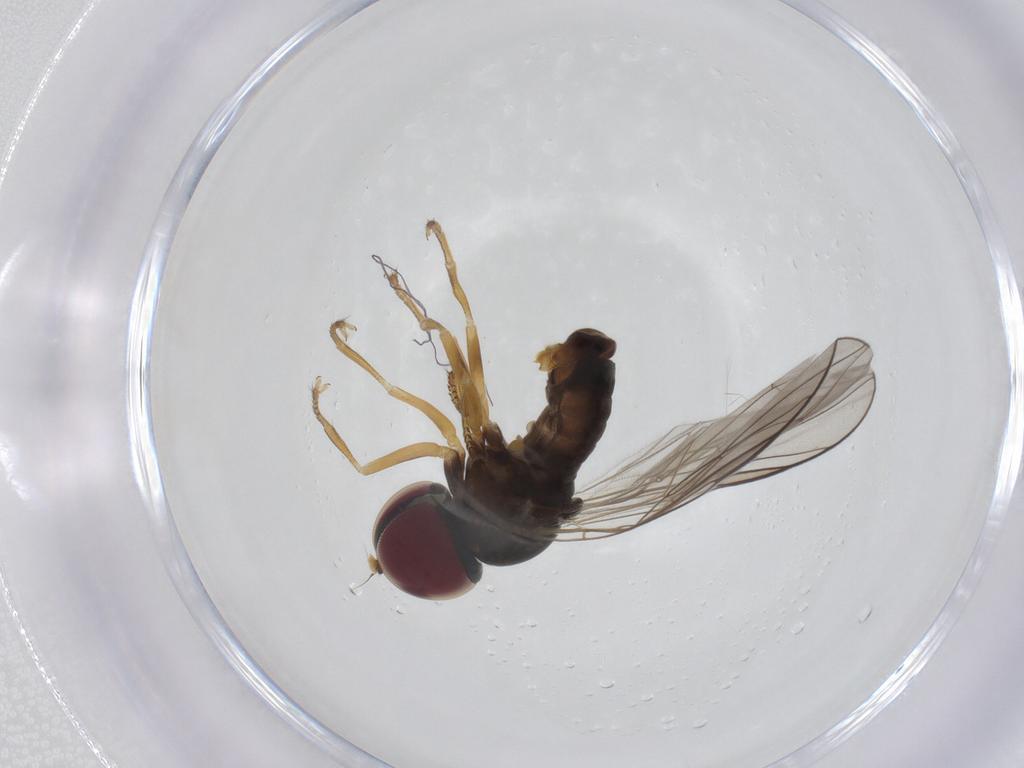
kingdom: Animalia
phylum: Arthropoda
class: Insecta
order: Diptera
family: Pipunculidae
